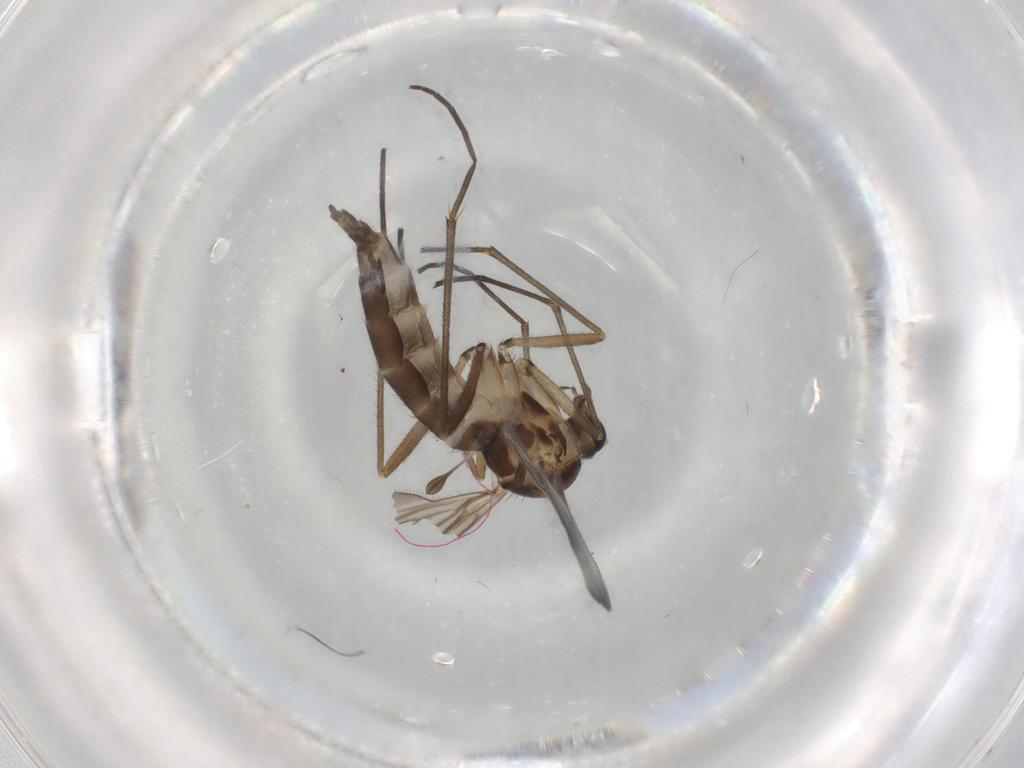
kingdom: Animalia
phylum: Arthropoda
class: Insecta
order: Diptera
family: Sciaridae
